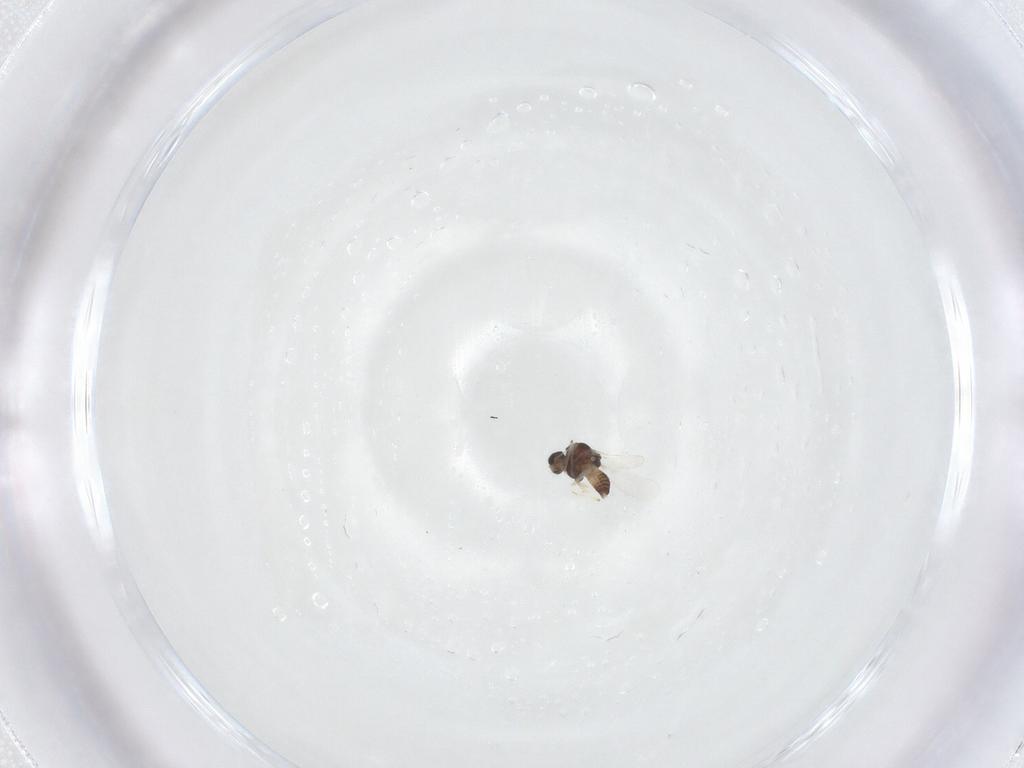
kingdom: Animalia
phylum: Arthropoda
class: Insecta
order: Diptera
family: Chironomidae
